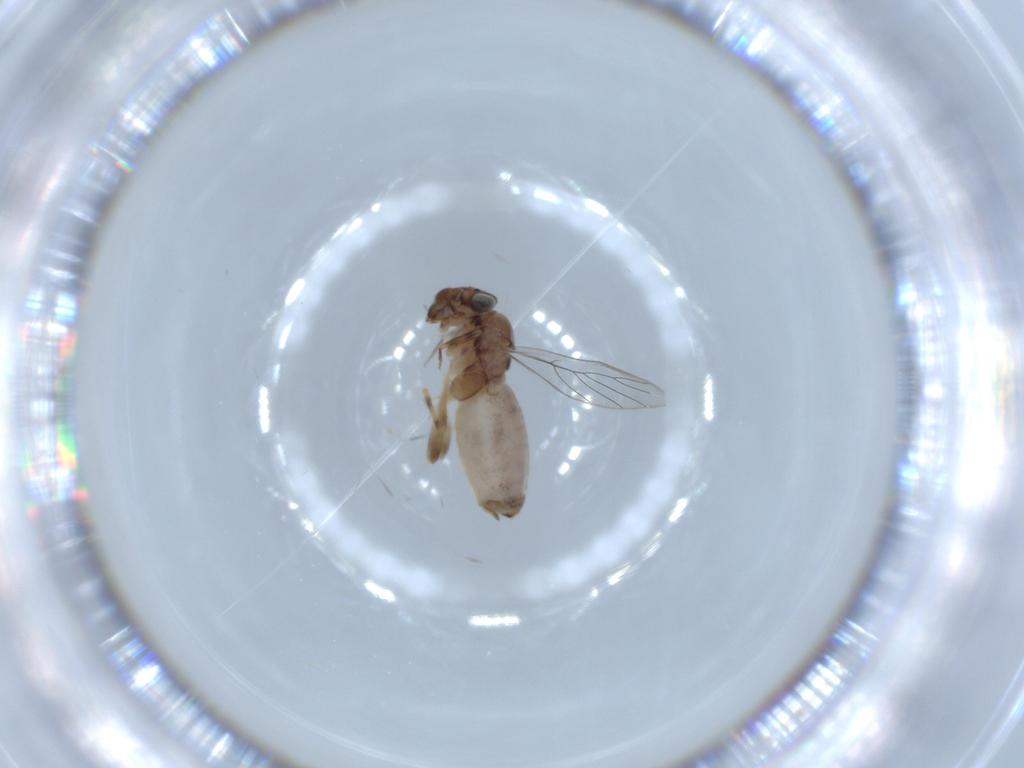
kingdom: Animalia
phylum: Arthropoda
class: Insecta
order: Psocodea
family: Lepidopsocidae
